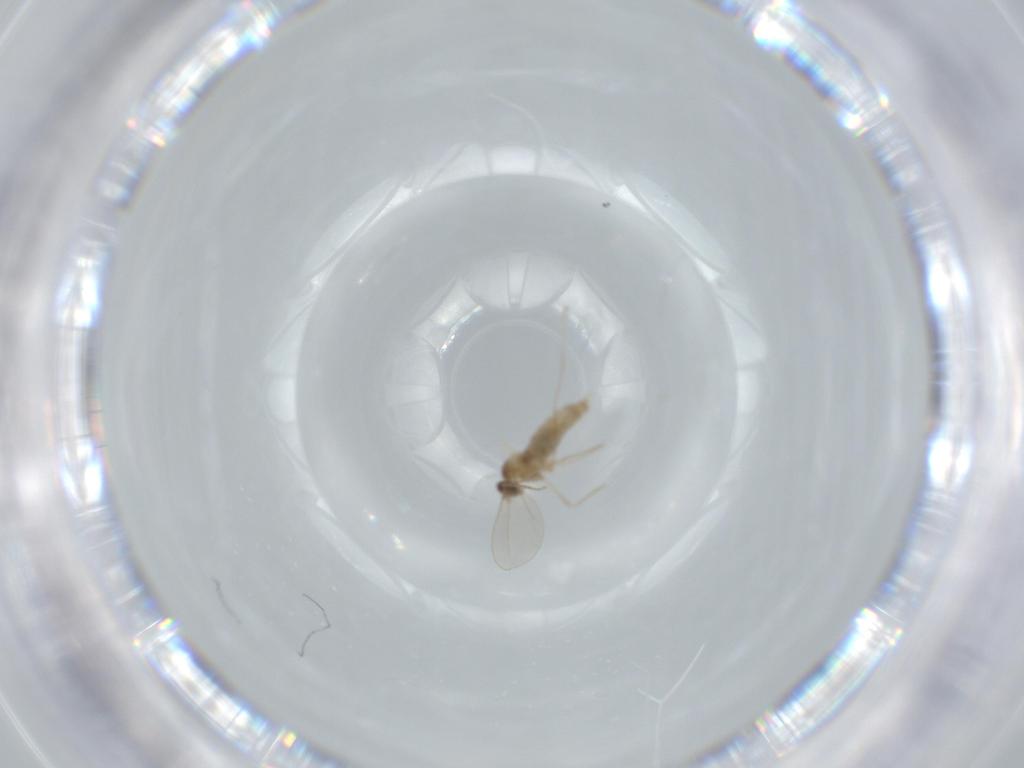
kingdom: Animalia
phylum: Arthropoda
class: Insecta
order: Diptera
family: Cecidomyiidae
